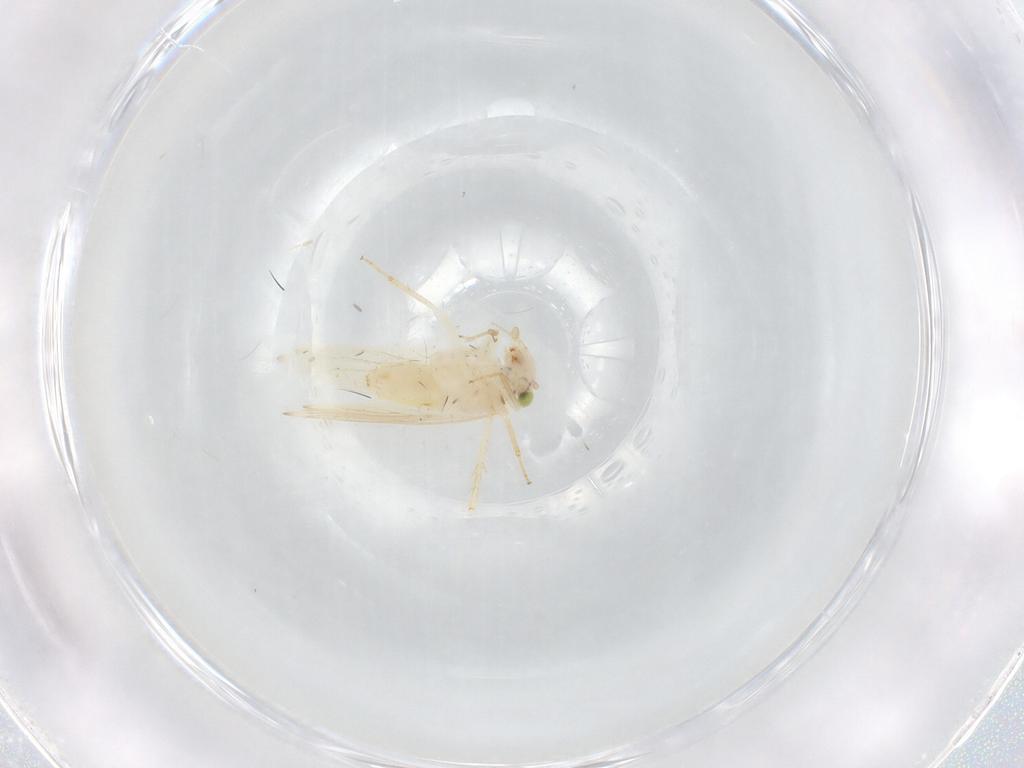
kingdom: Animalia
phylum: Arthropoda
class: Insecta
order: Psocodea
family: Lepidopsocidae
